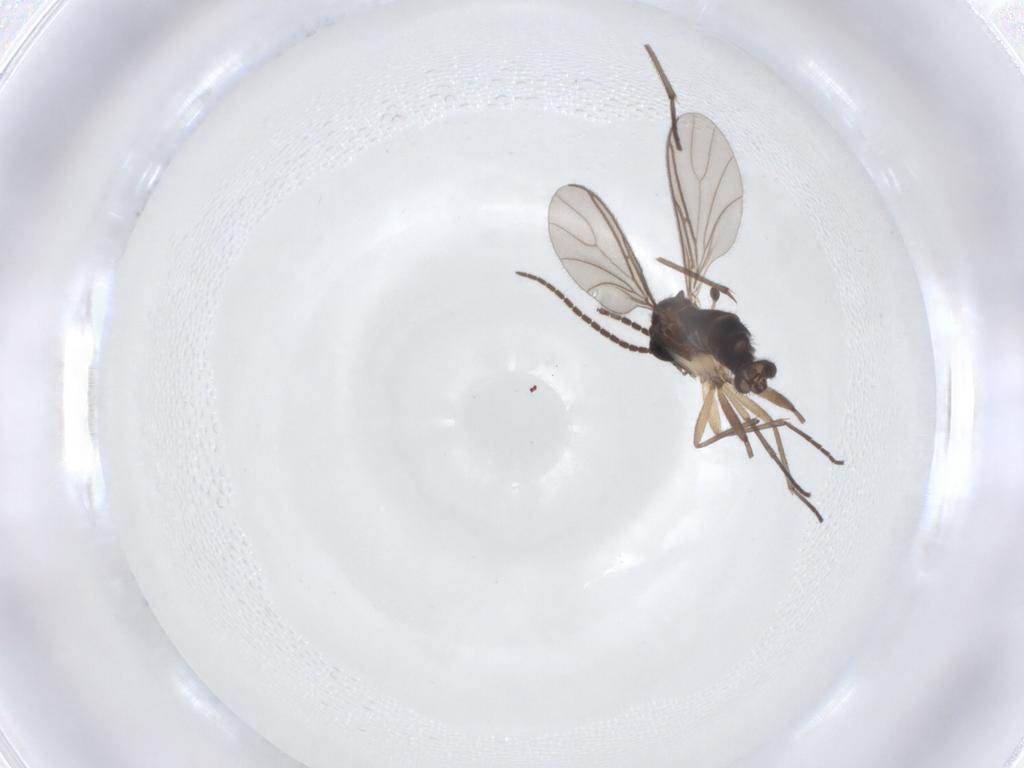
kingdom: Animalia
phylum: Arthropoda
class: Insecta
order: Diptera
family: Sciaridae
